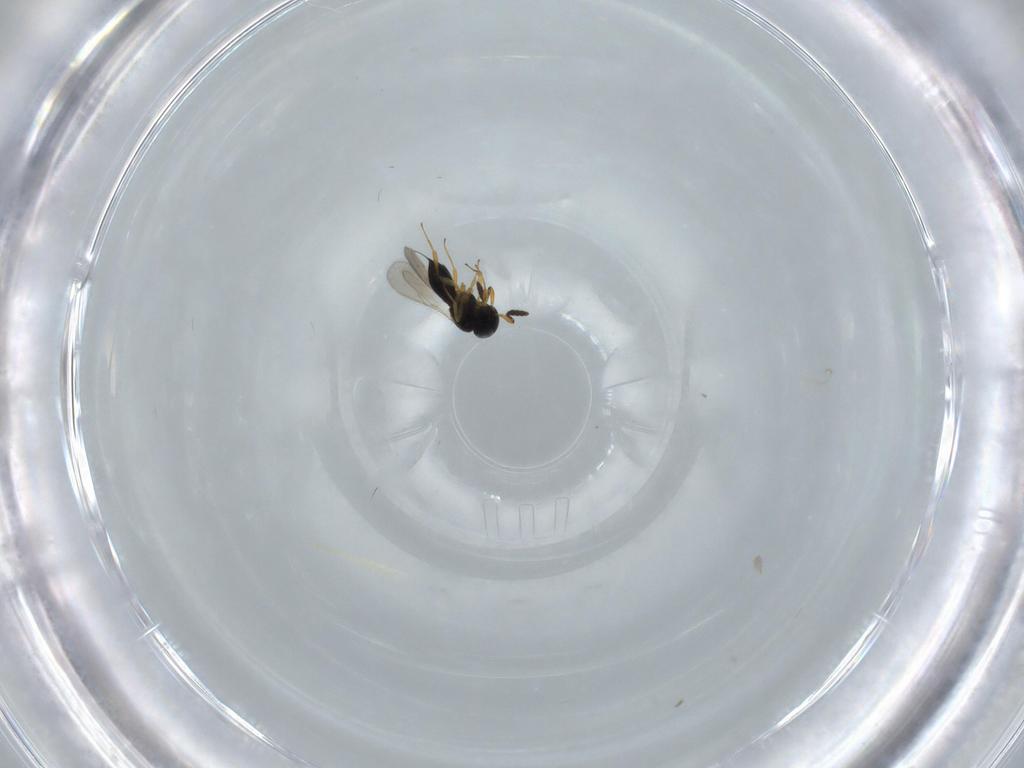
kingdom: Animalia
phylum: Arthropoda
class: Insecta
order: Hymenoptera
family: Scelionidae
